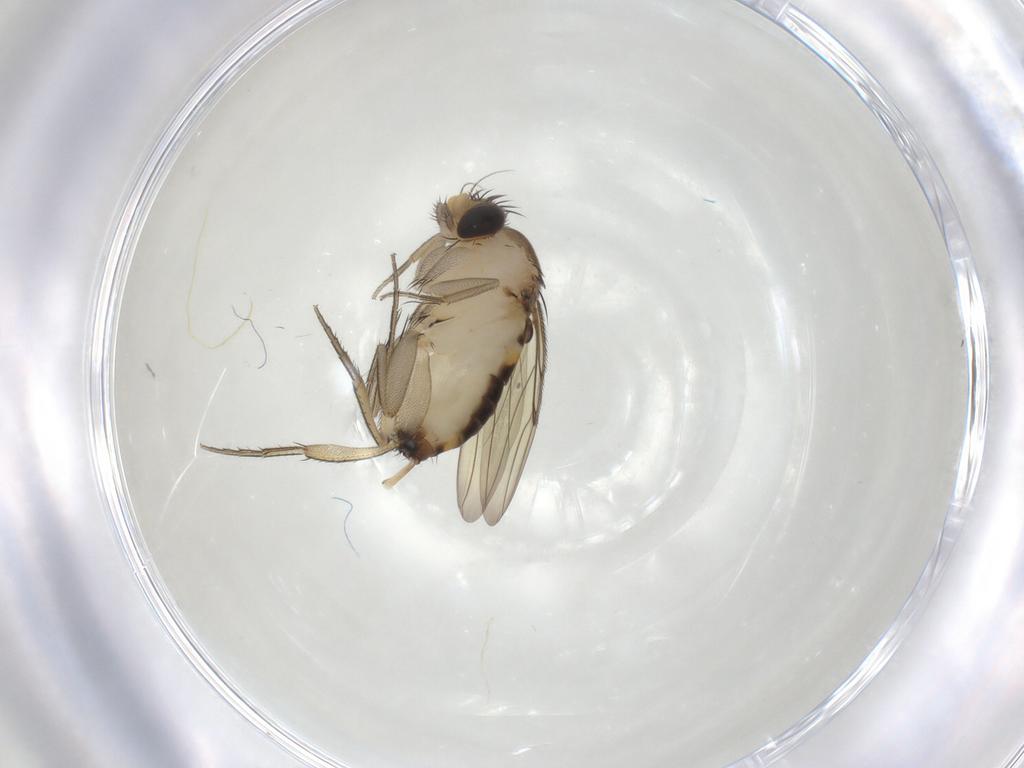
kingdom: Animalia
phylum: Arthropoda
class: Insecta
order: Diptera
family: Phoridae
